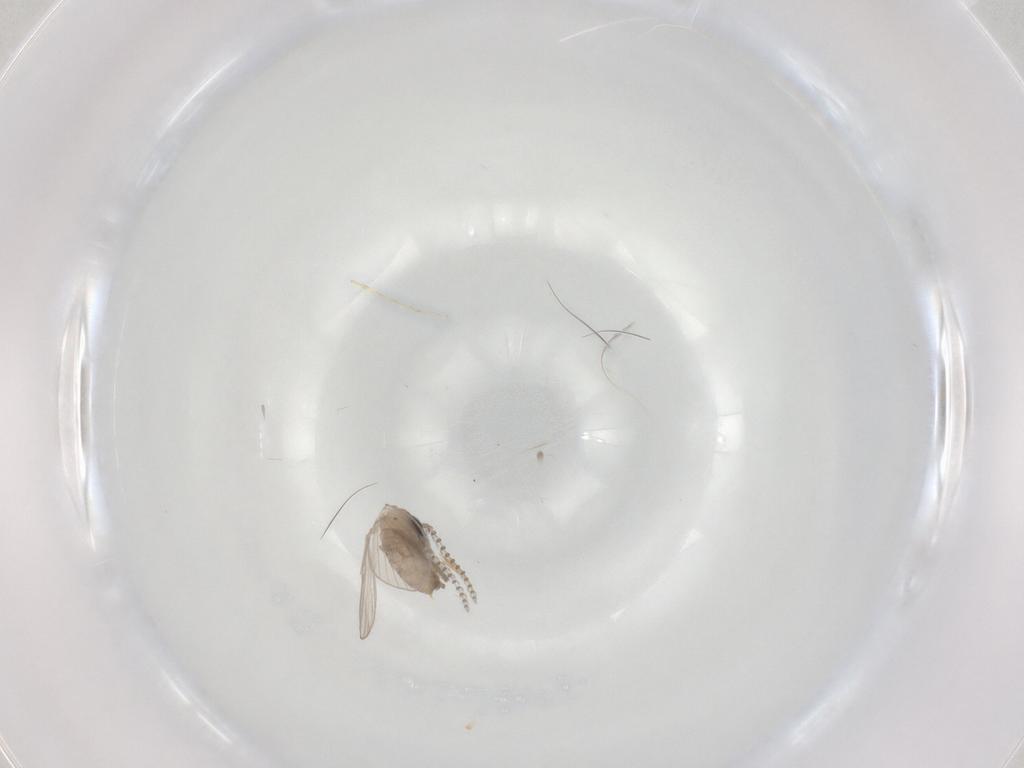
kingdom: Animalia
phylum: Arthropoda
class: Insecta
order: Diptera
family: Psychodidae
